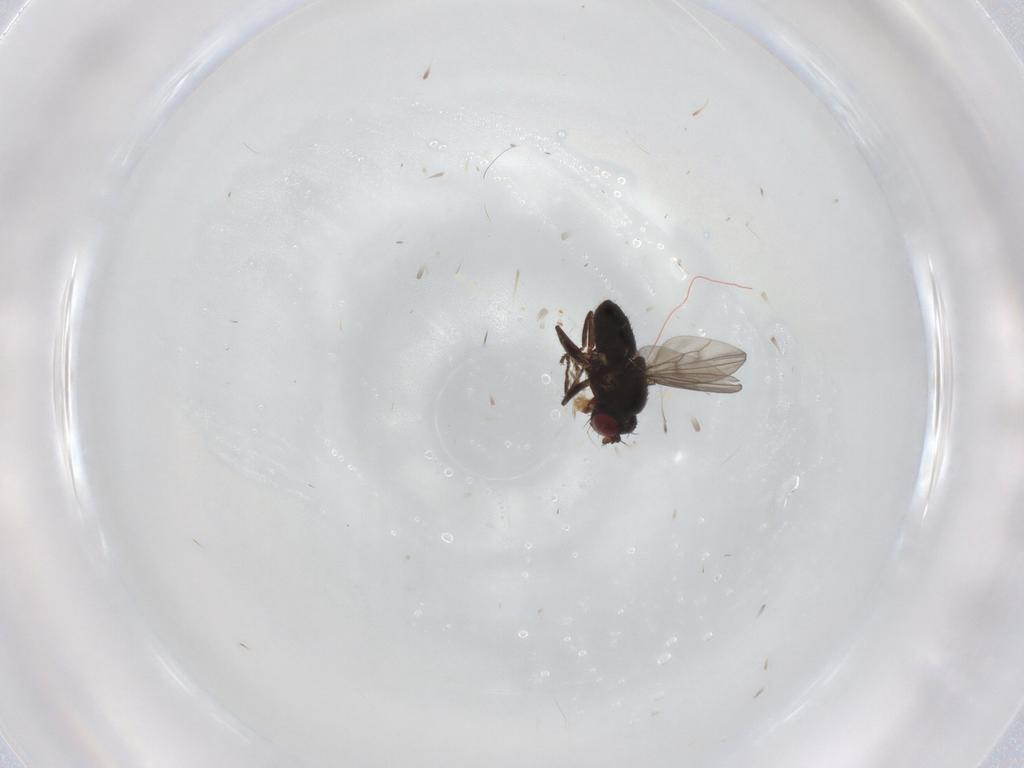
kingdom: Animalia
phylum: Arthropoda
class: Insecta
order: Diptera
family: Ephydridae
